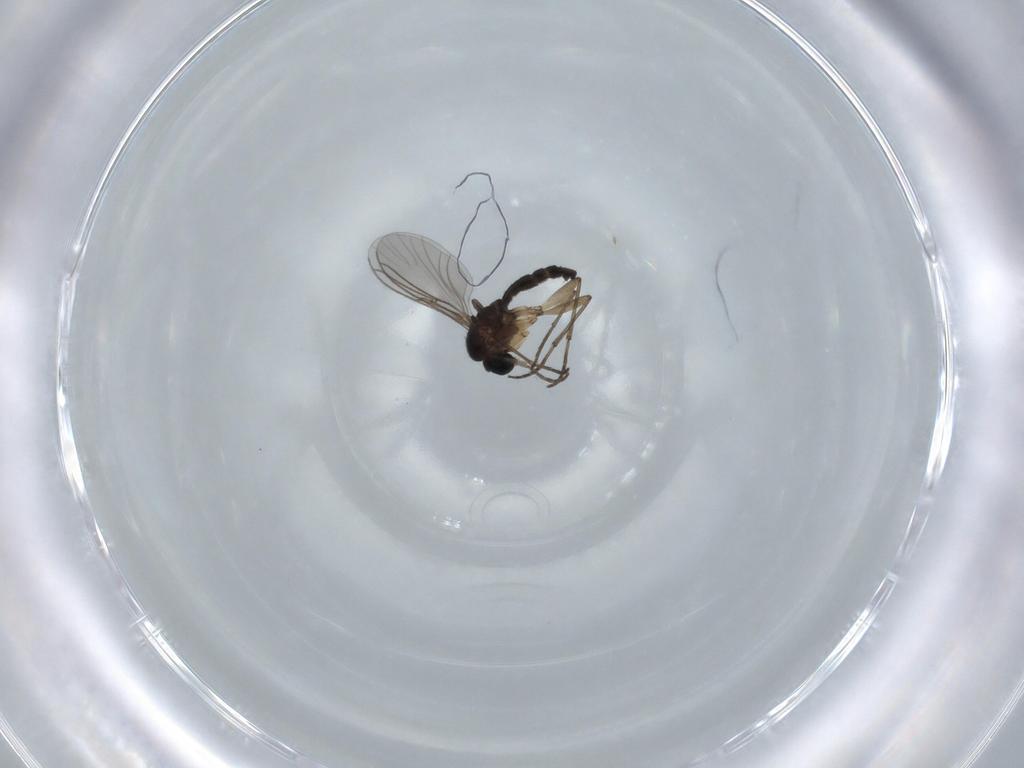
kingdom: Animalia
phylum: Arthropoda
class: Insecta
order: Diptera
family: Sciaridae
